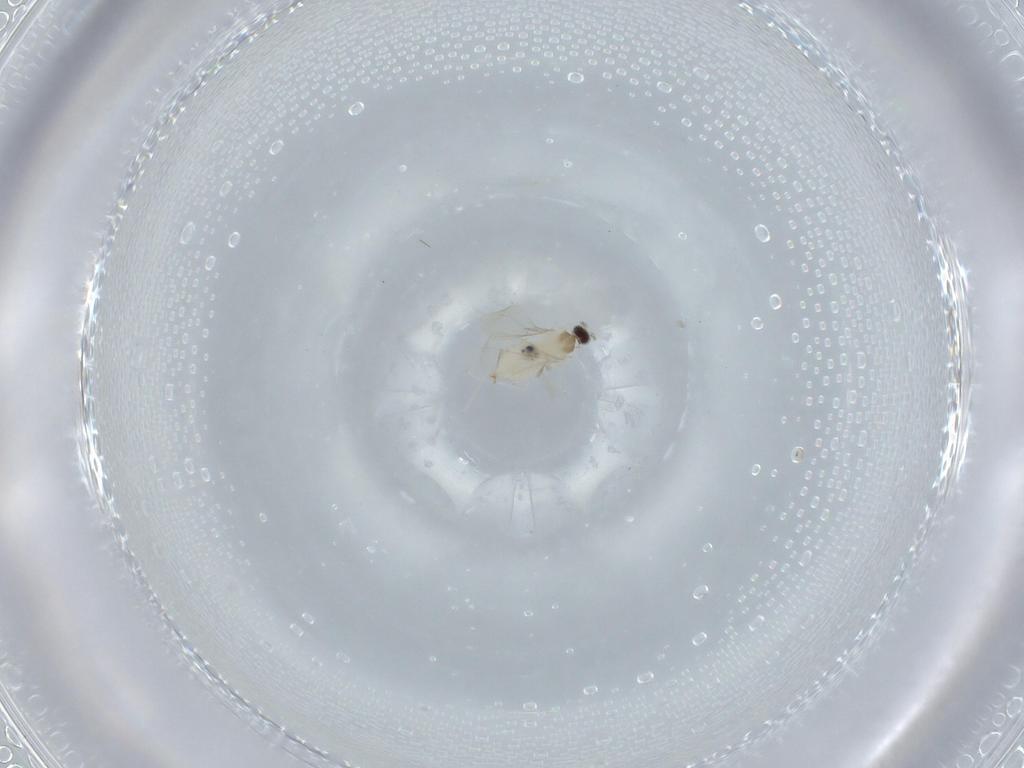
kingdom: Animalia
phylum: Arthropoda
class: Insecta
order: Diptera
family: Cecidomyiidae
